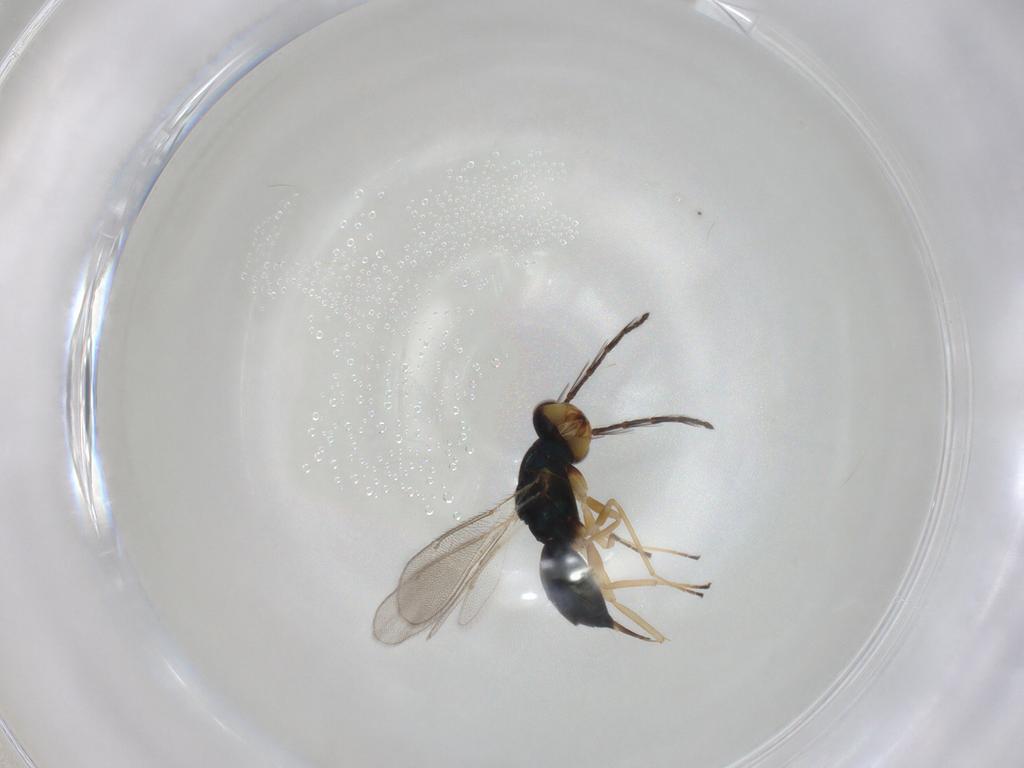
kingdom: Animalia
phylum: Arthropoda
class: Insecta
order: Hymenoptera
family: Eulophidae
